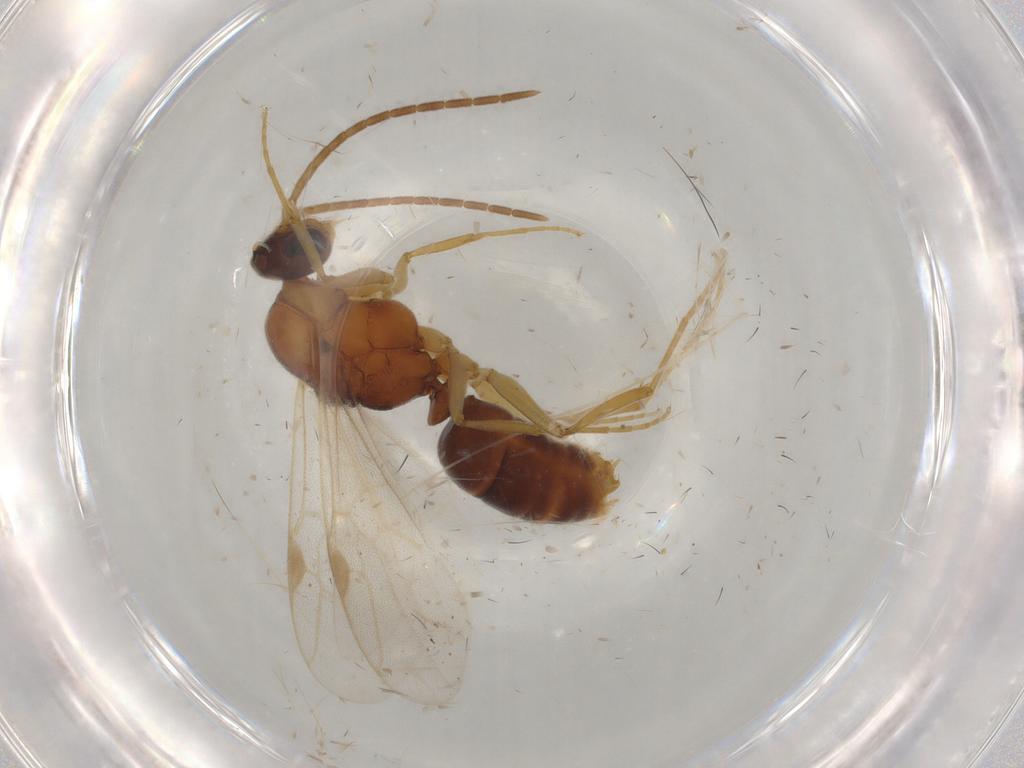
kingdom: Animalia
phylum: Arthropoda
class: Insecta
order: Hymenoptera
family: Formicidae
